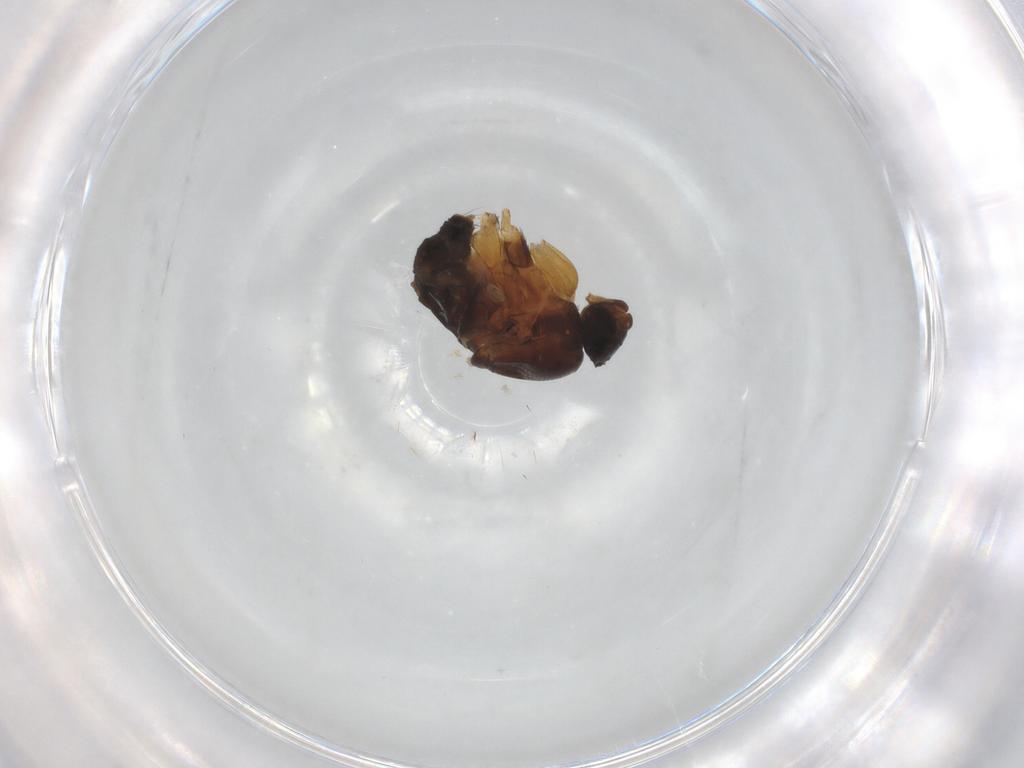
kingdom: Animalia
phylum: Arthropoda
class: Insecta
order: Diptera
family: Phoridae
